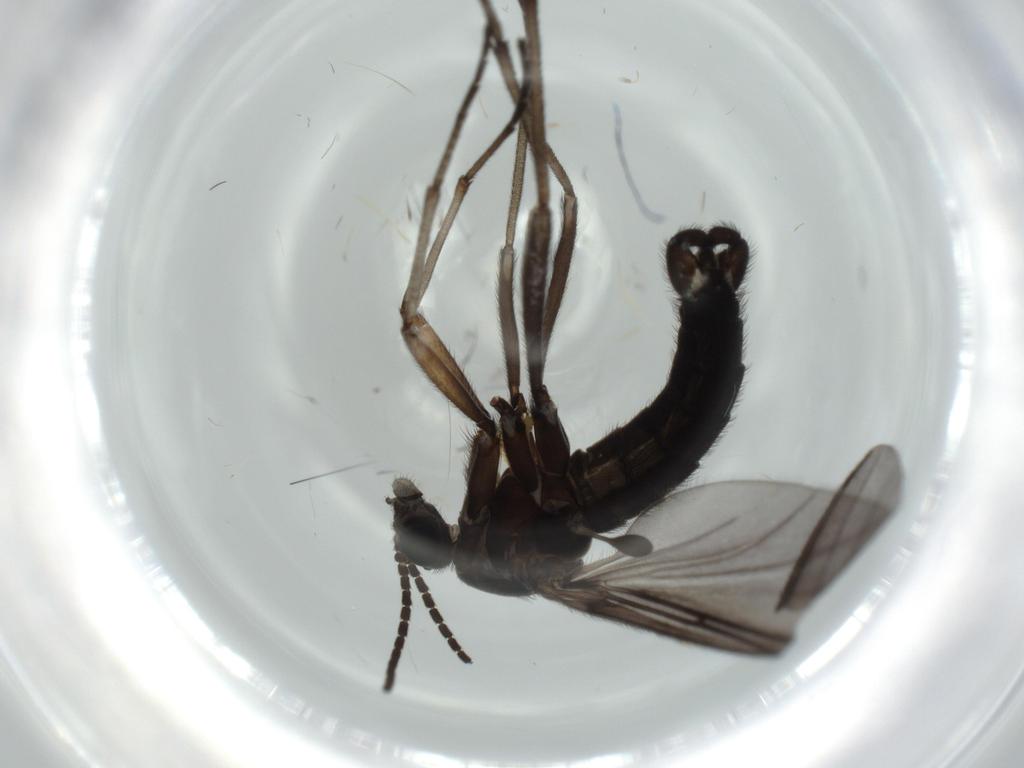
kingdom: Animalia
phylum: Arthropoda
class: Insecta
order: Diptera
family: Sciaridae
